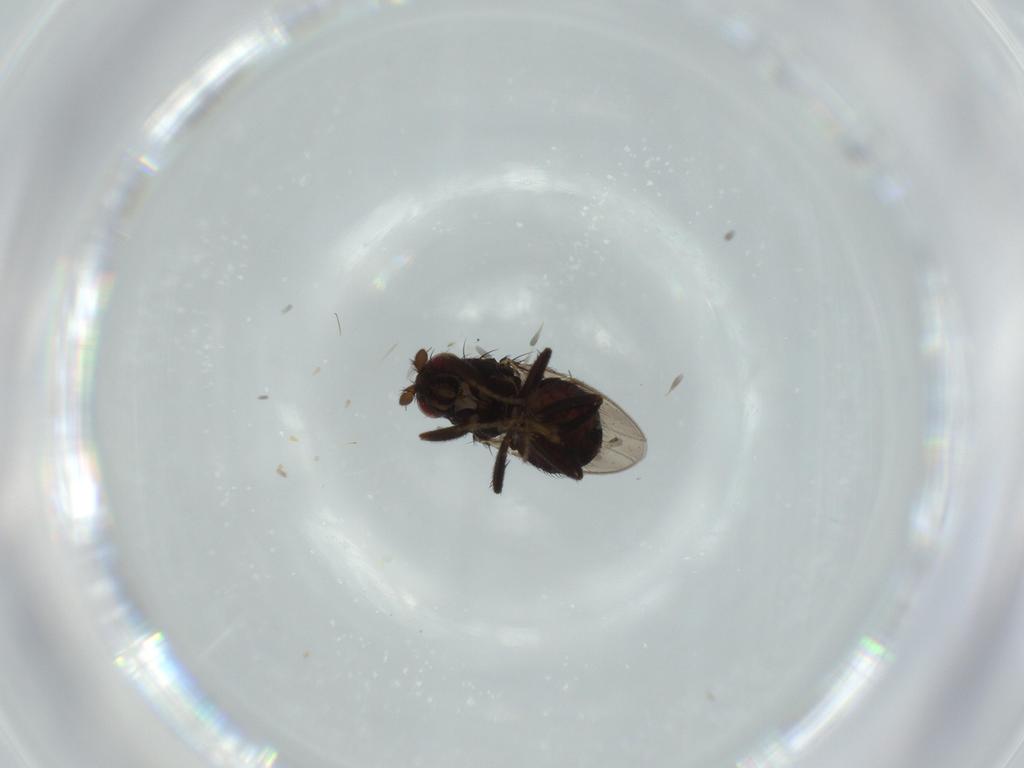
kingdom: Animalia
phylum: Arthropoda
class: Insecta
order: Diptera
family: Sphaeroceridae
